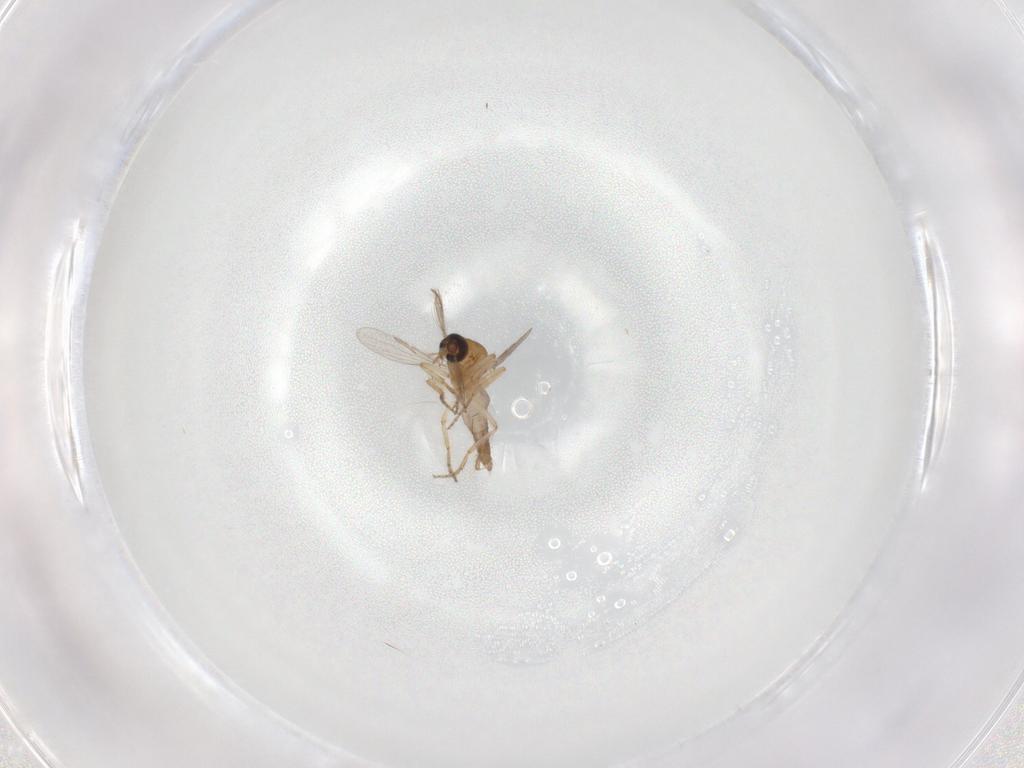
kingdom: Animalia
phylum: Arthropoda
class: Insecta
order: Diptera
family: Ceratopogonidae
